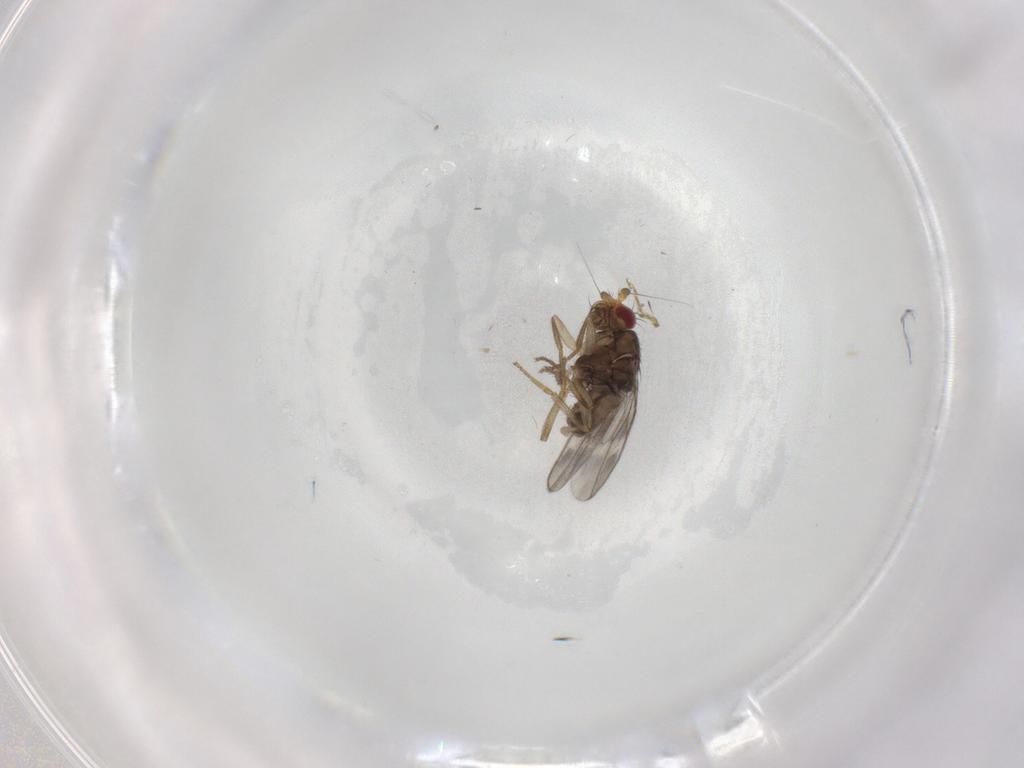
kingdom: Animalia
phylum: Arthropoda
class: Insecta
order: Diptera
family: Sphaeroceridae
